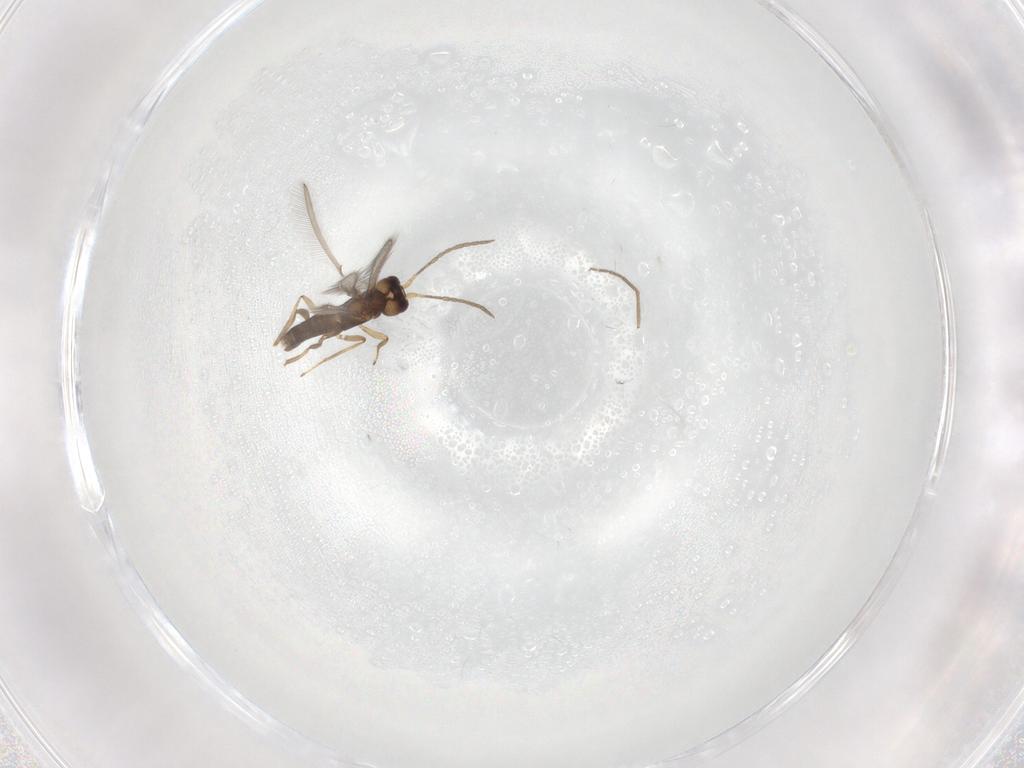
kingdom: Animalia
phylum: Arthropoda
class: Insecta
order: Hymenoptera
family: Mymaridae
